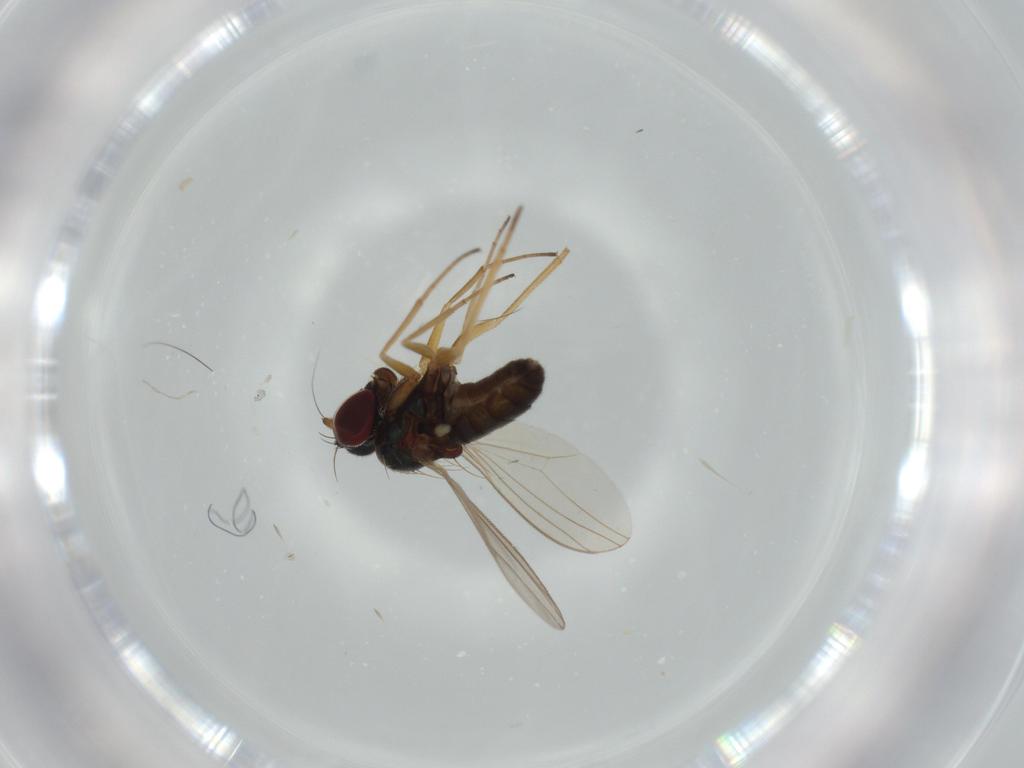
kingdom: Animalia
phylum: Arthropoda
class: Insecta
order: Diptera
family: Dolichopodidae
